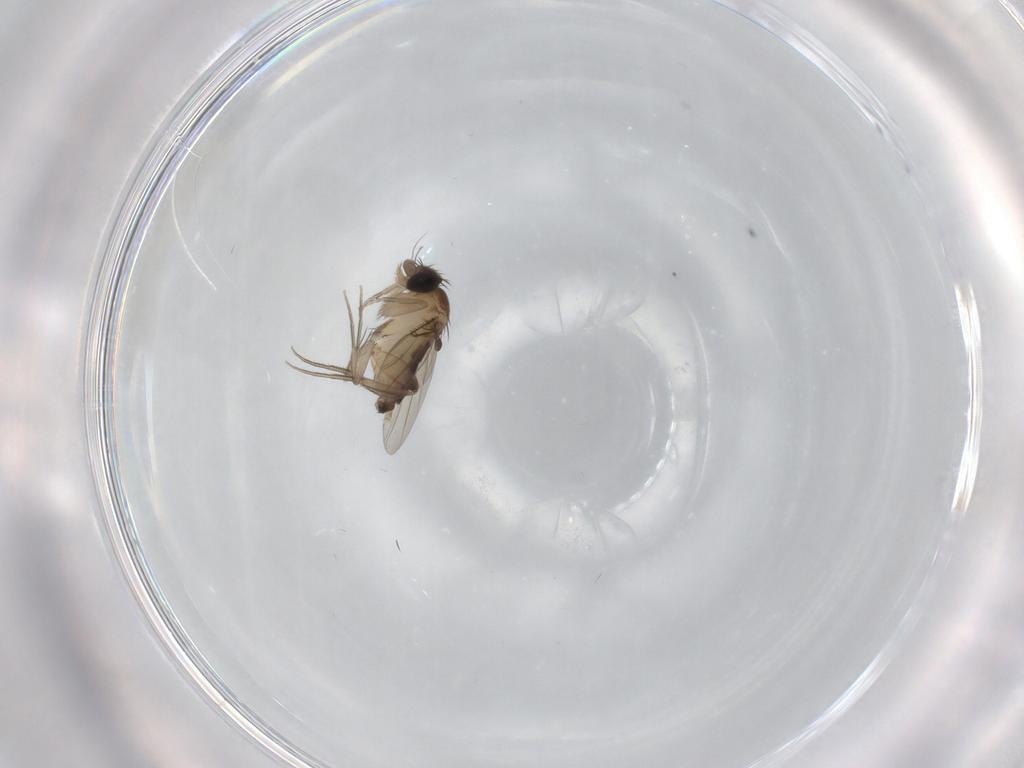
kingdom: Animalia
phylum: Arthropoda
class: Insecta
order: Diptera
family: Phoridae
